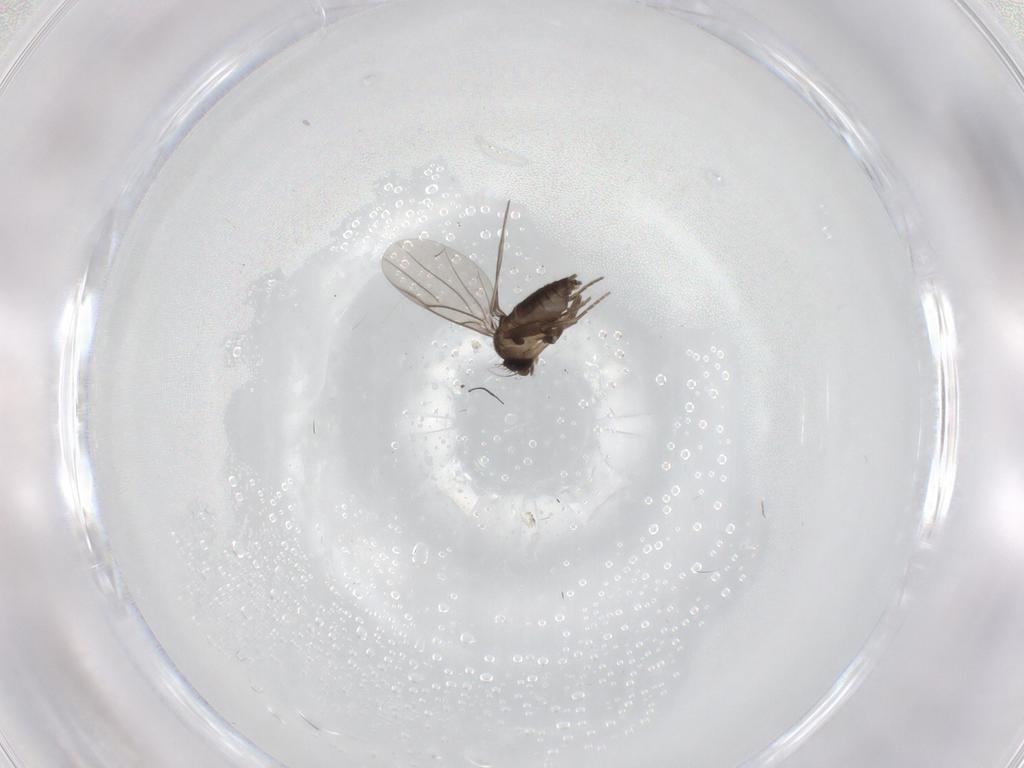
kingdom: Animalia
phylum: Arthropoda
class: Insecta
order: Diptera
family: Phoridae
